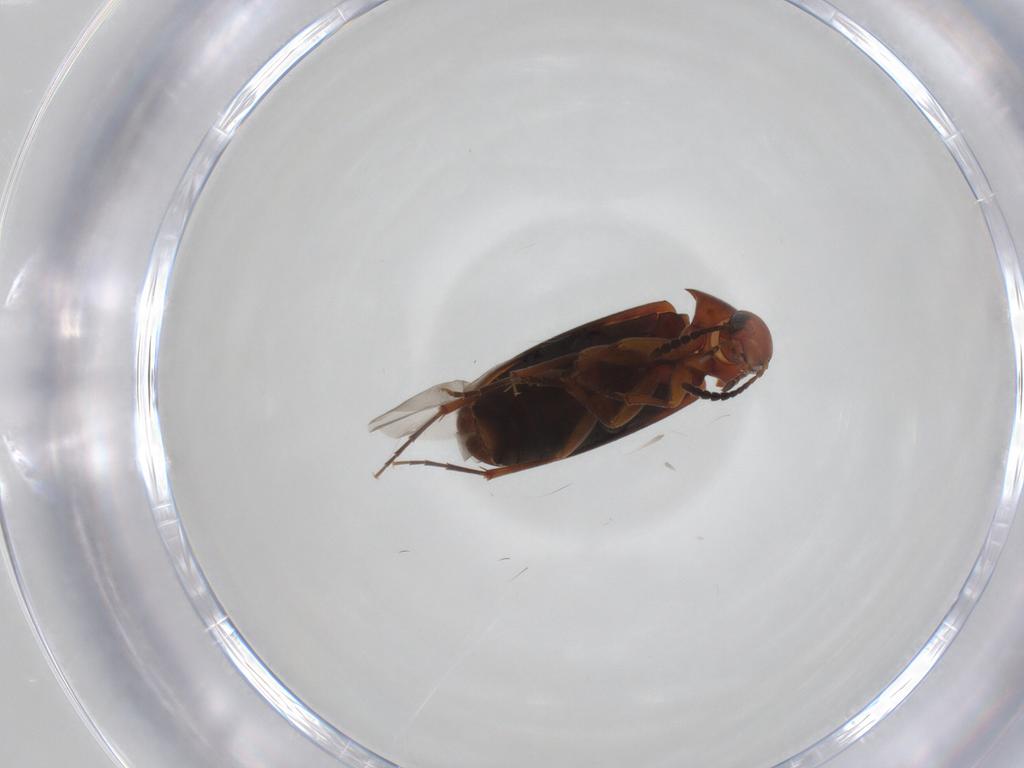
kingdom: Animalia
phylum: Arthropoda
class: Insecta
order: Coleoptera
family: Scraptiidae
